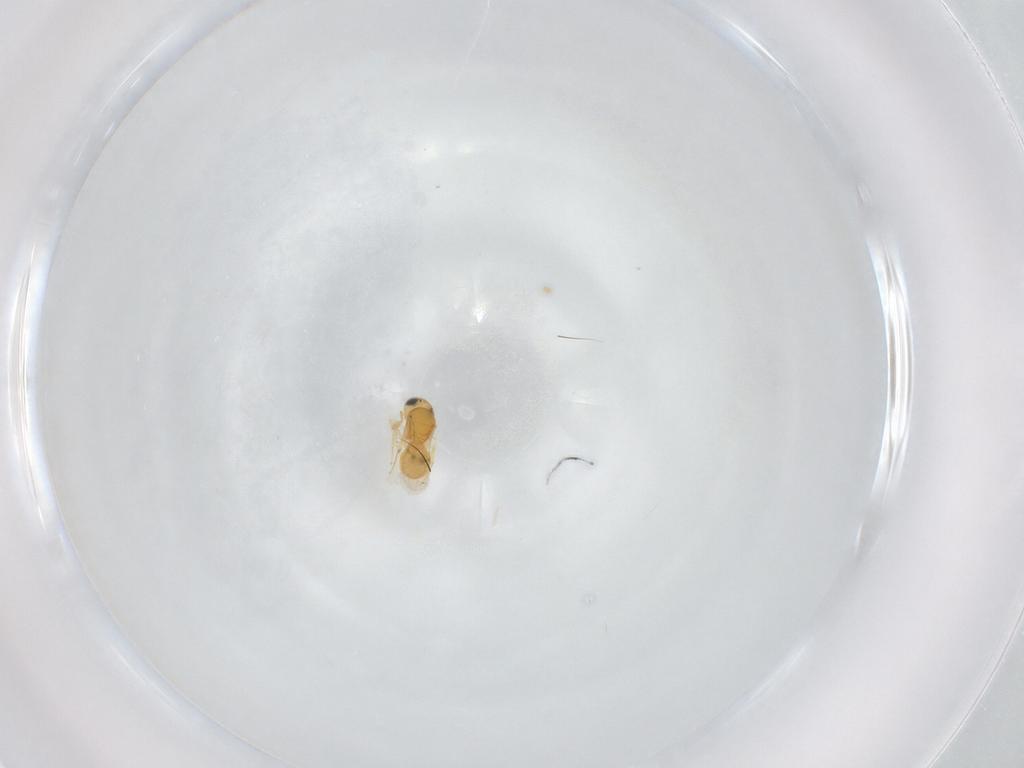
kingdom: Animalia
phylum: Arthropoda
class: Insecta
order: Hymenoptera
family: Scelionidae
